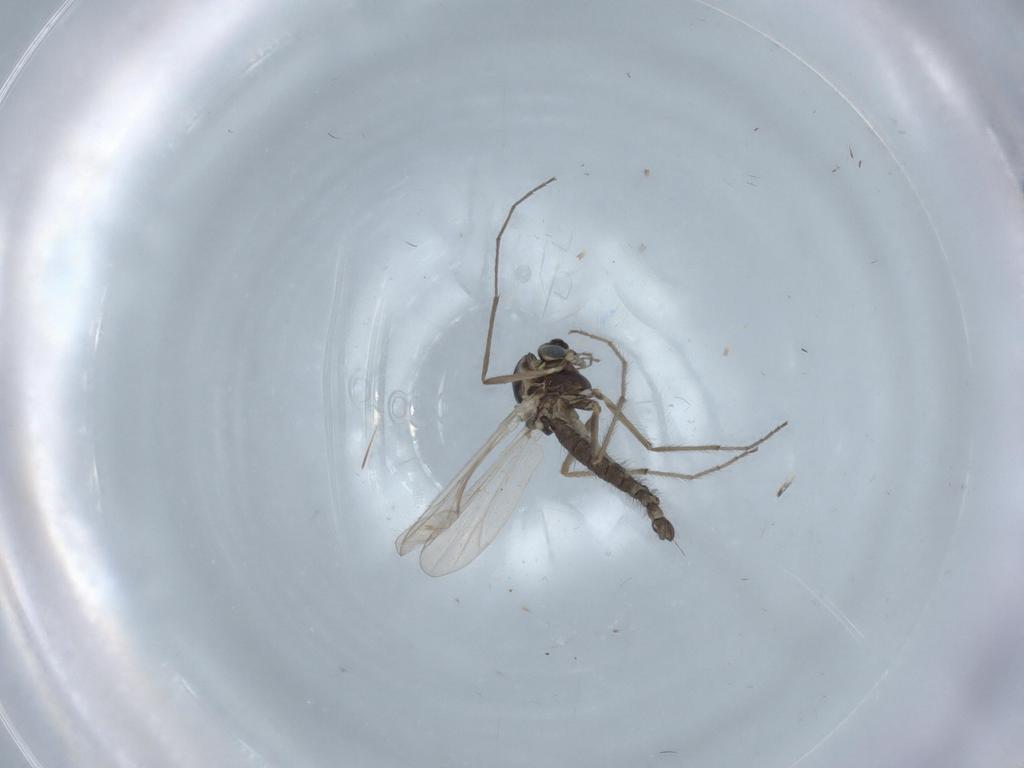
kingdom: Animalia
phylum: Arthropoda
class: Insecta
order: Diptera
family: Chironomidae
